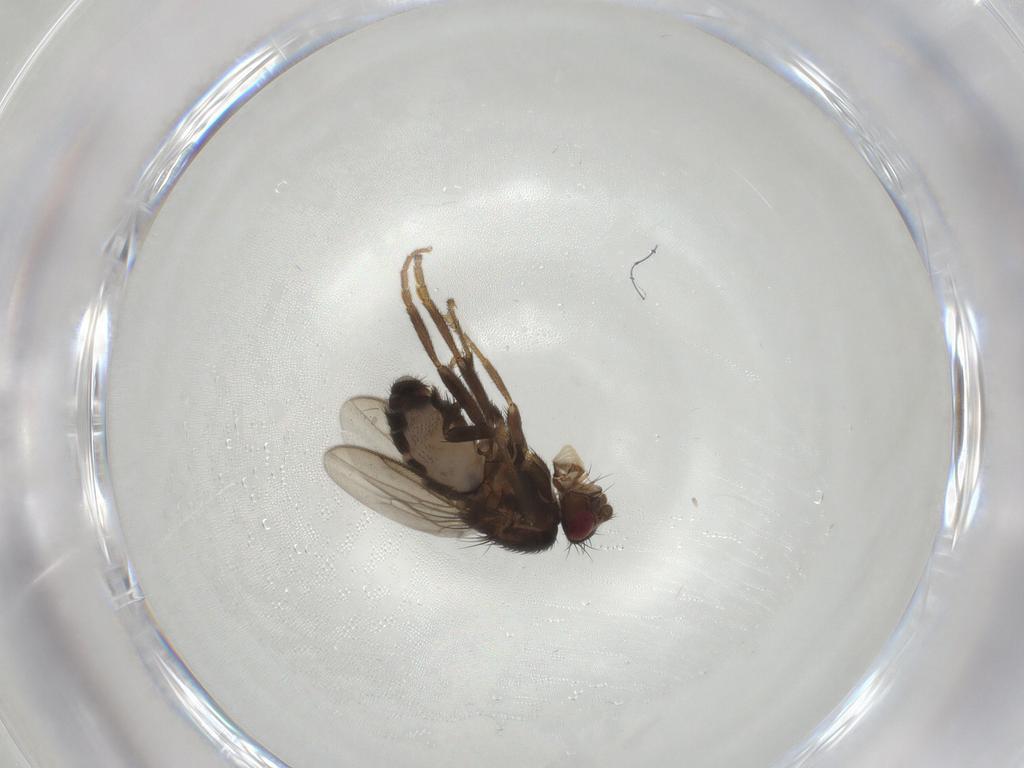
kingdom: Animalia
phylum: Arthropoda
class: Insecta
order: Diptera
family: Sphaeroceridae
